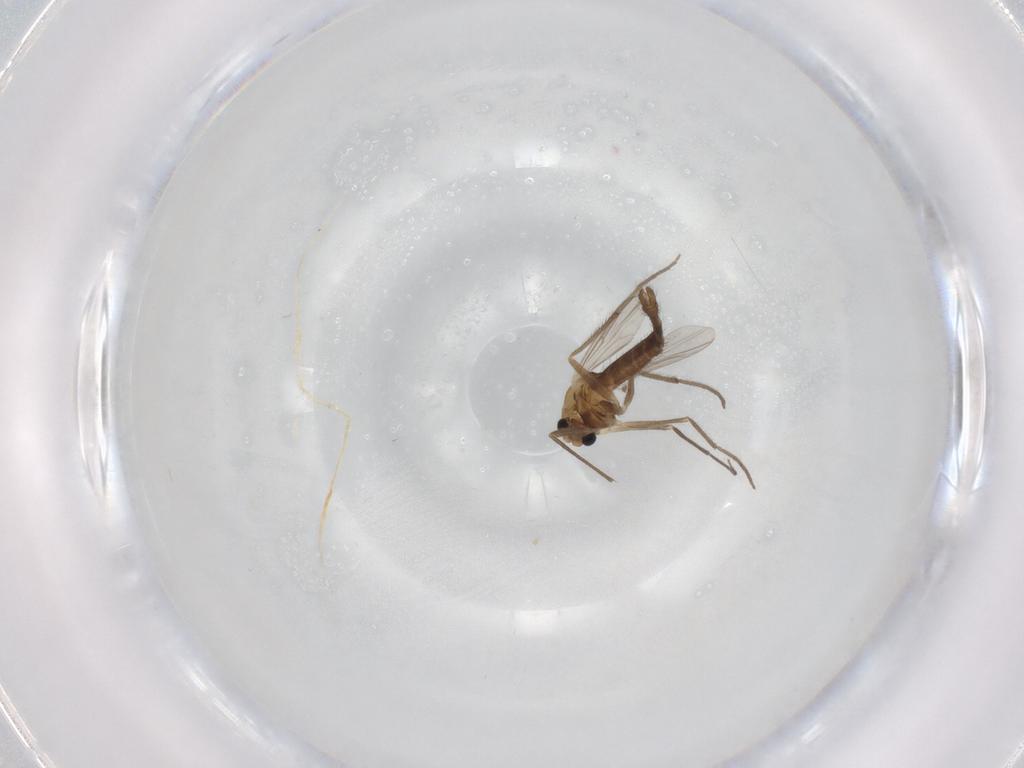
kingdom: Animalia
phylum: Arthropoda
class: Insecta
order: Diptera
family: Chironomidae
